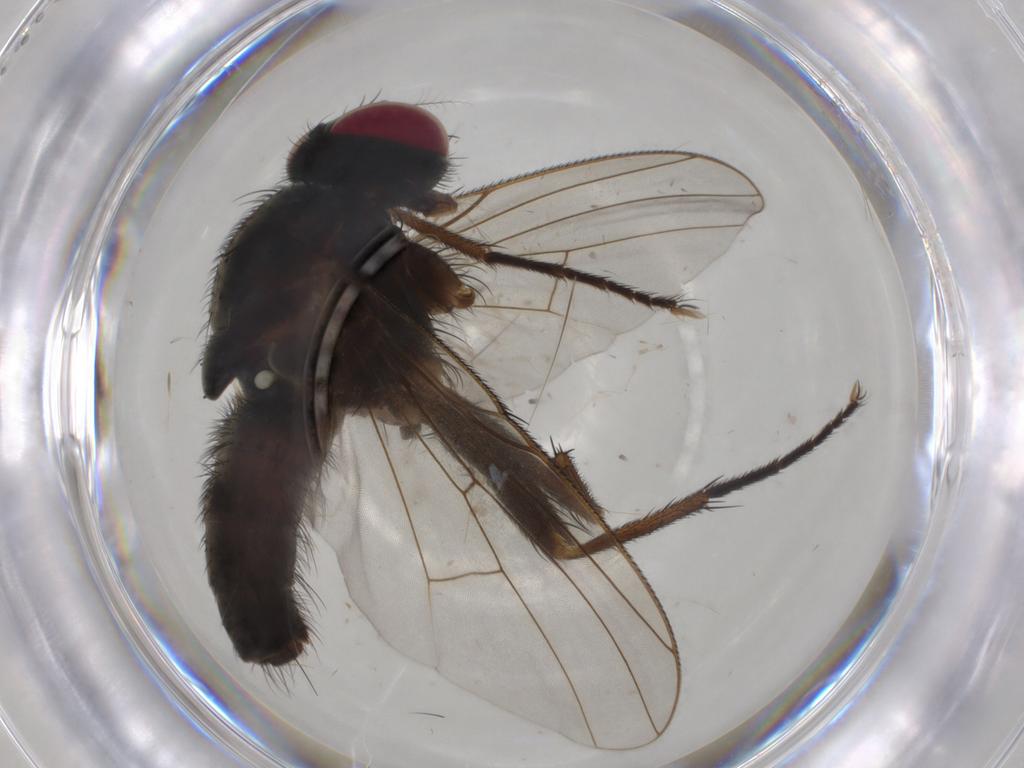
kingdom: Animalia
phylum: Arthropoda
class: Insecta
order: Diptera
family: Muscidae
